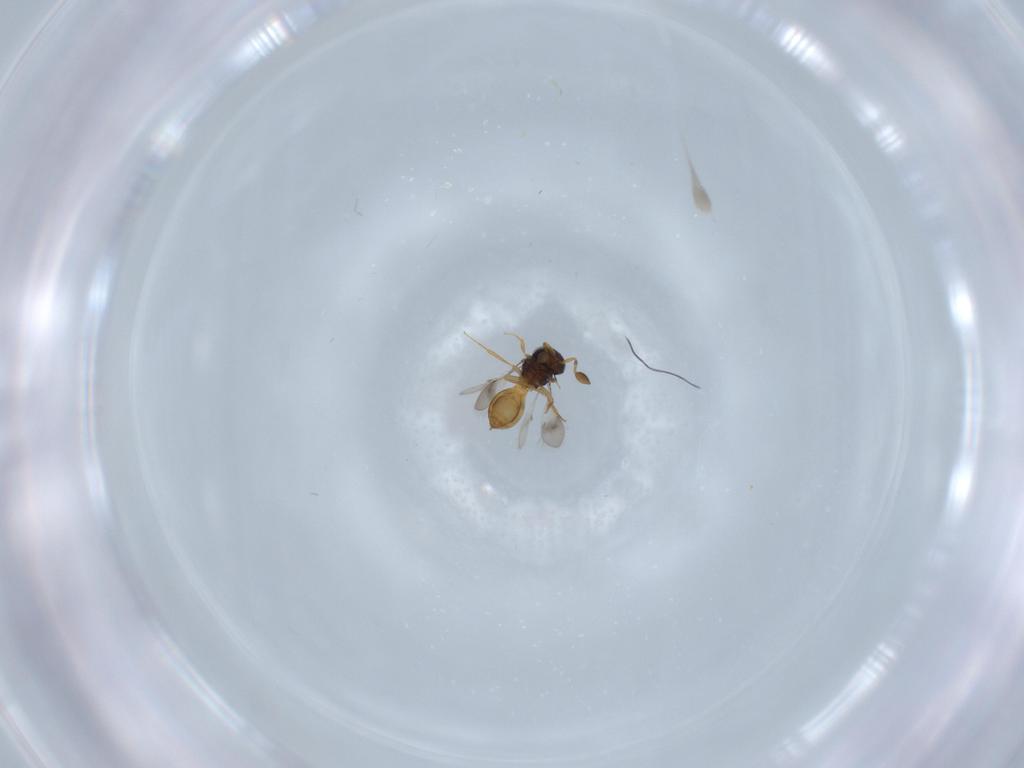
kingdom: Animalia
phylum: Arthropoda
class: Insecta
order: Hymenoptera
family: Scelionidae
